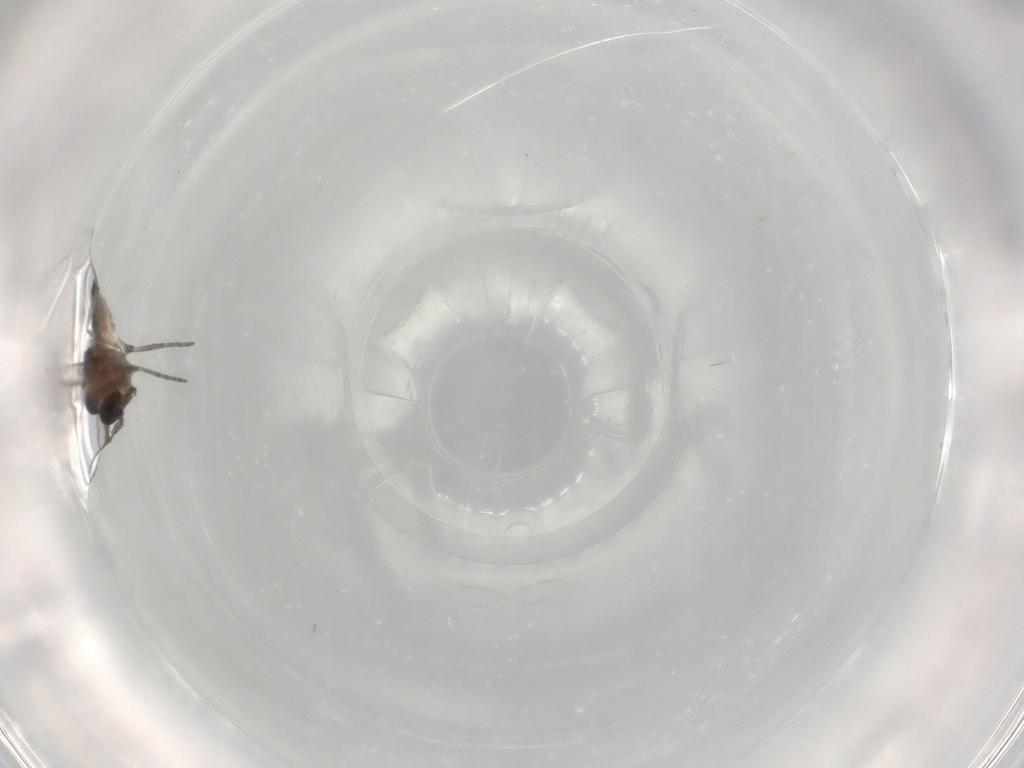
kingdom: Animalia
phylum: Arthropoda
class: Insecta
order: Diptera
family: Ceratopogonidae
